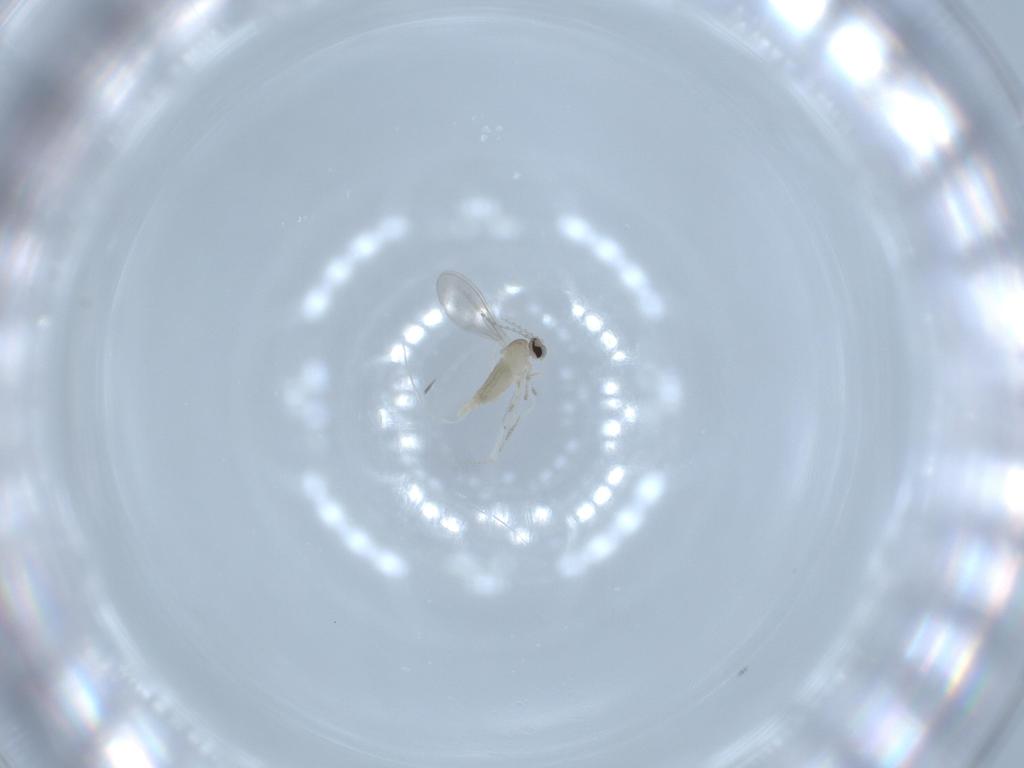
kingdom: Animalia
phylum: Arthropoda
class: Insecta
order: Diptera
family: Cecidomyiidae
